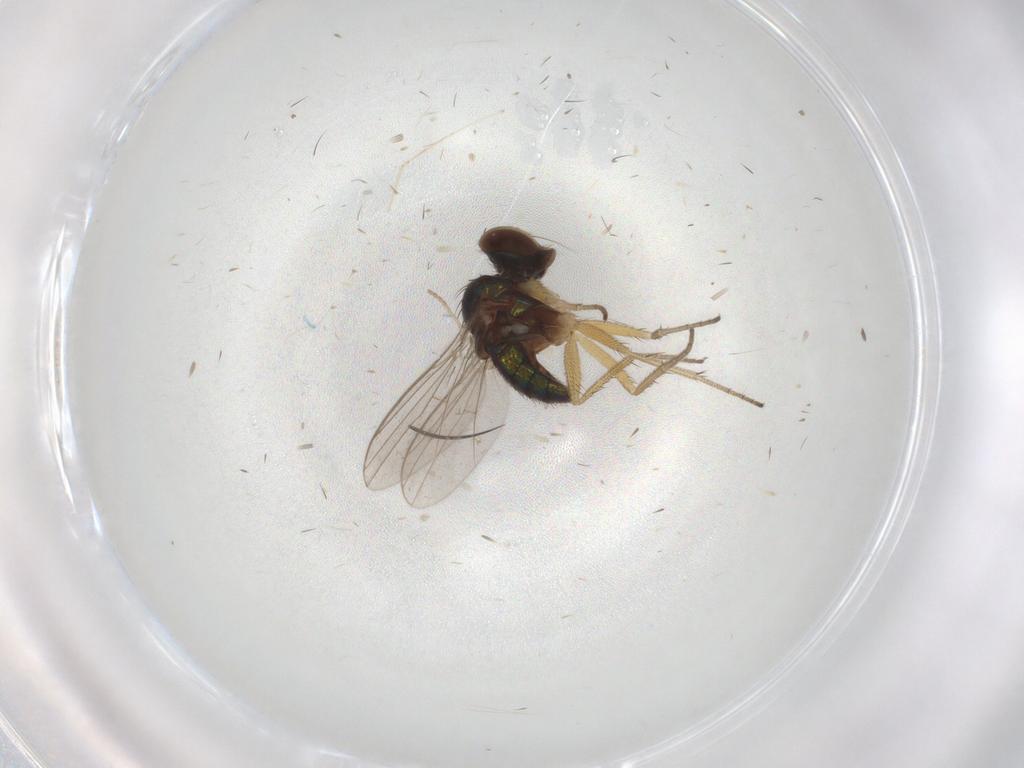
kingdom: Animalia
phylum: Arthropoda
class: Insecta
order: Diptera
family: Dolichopodidae
